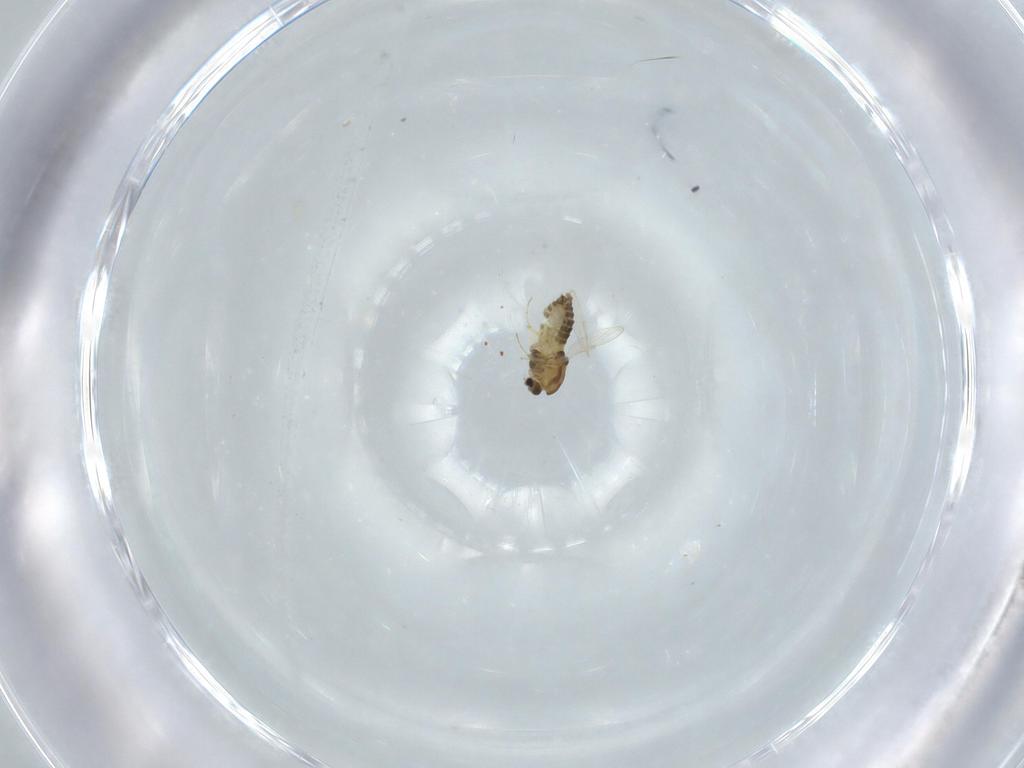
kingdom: Animalia
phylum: Arthropoda
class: Insecta
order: Diptera
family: Chironomidae
